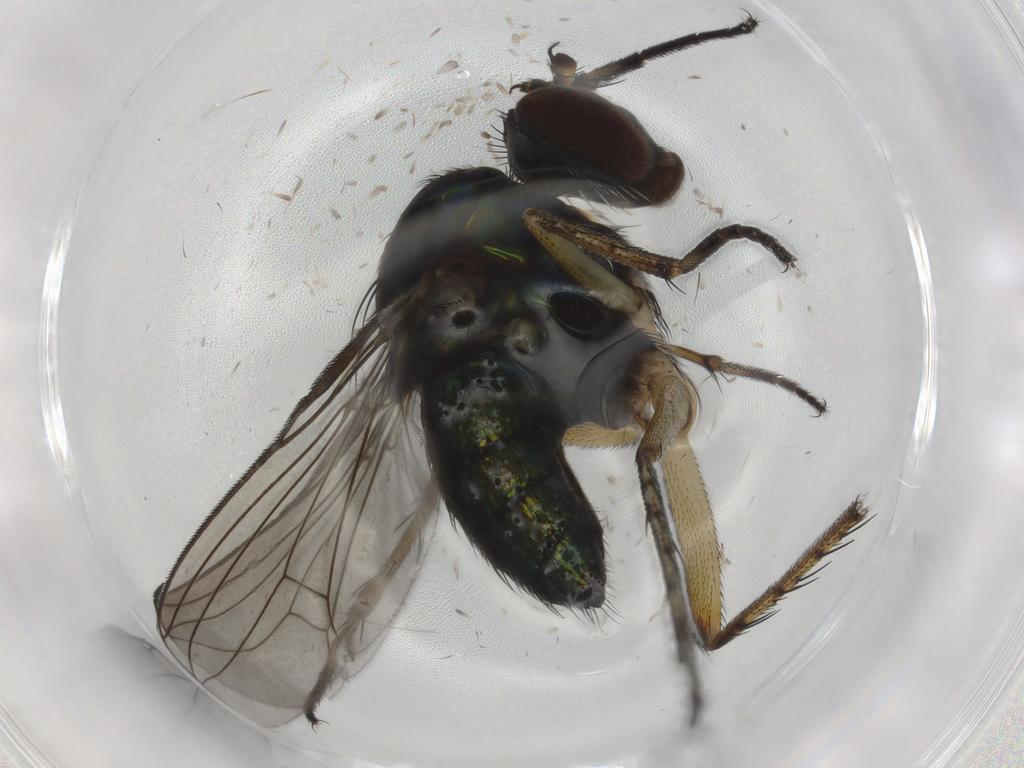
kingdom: Animalia
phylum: Arthropoda
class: Insecta
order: Diptera
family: Dolichopodidae
